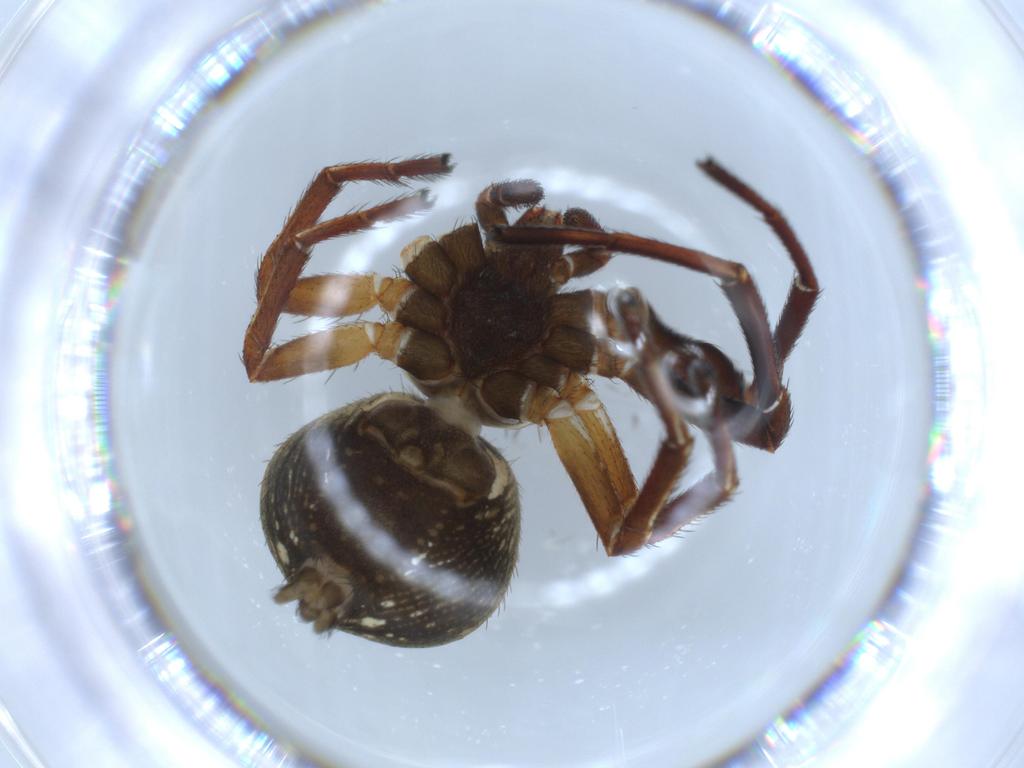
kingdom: Animalia
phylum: Arthropoda
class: Arachnida
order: Araneae
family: Thomisidae
